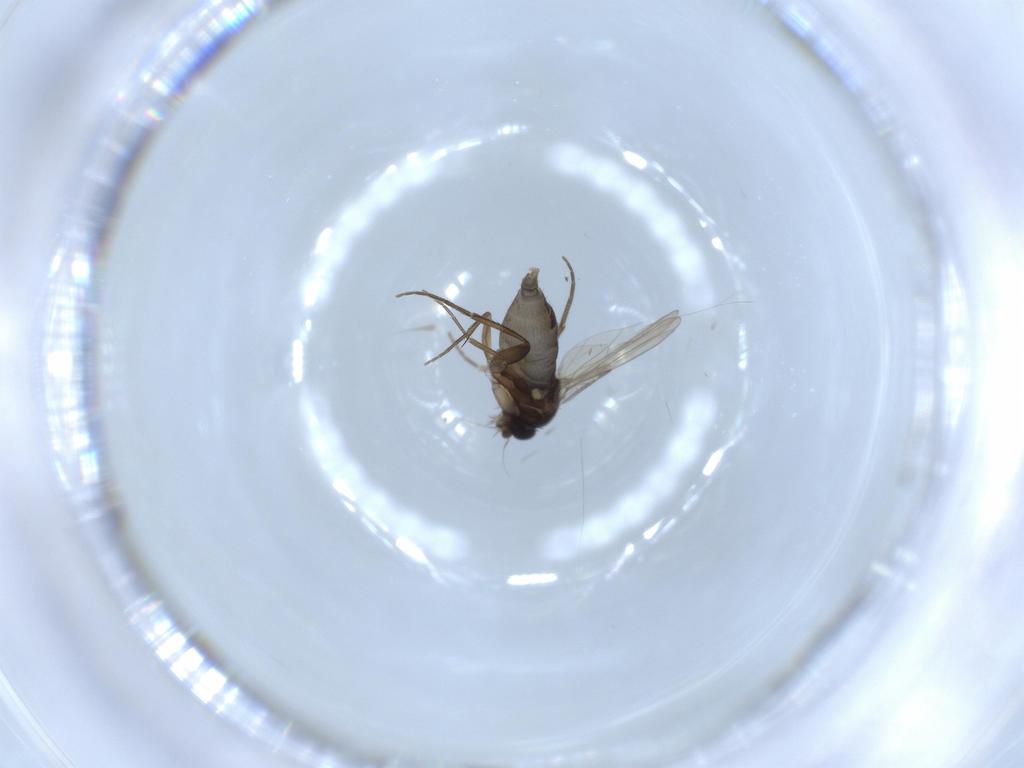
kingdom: Animalia
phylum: Arthropoda
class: Insecta
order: Diptera
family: Phoridae
